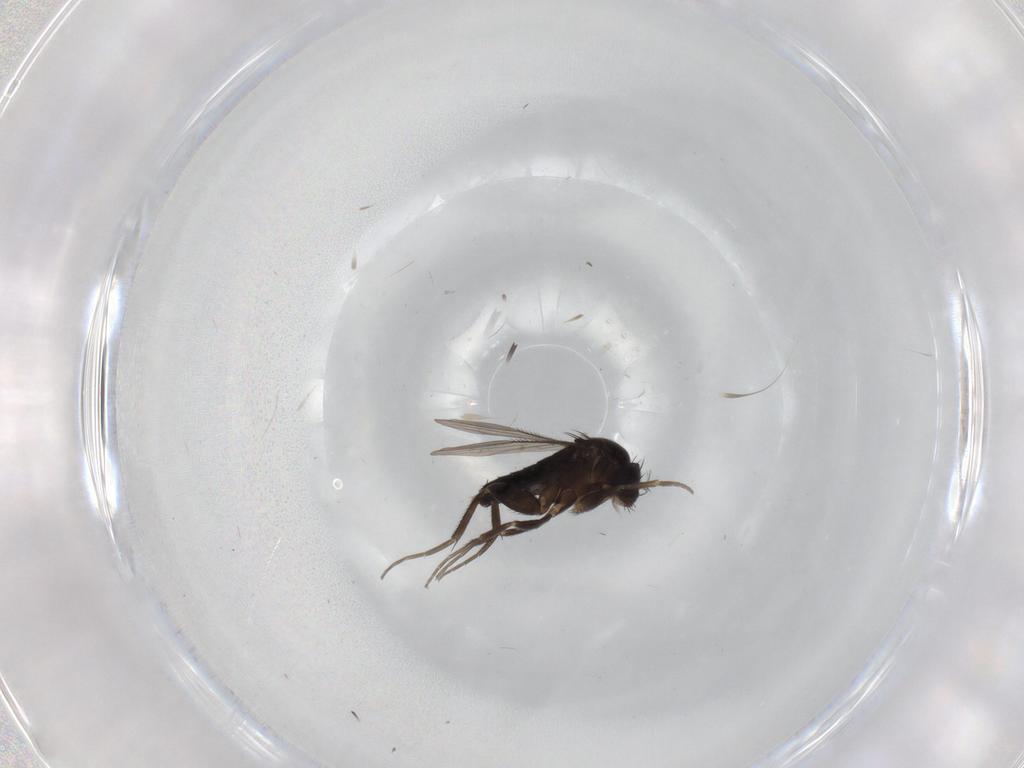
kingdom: Animalia
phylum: Arthropoda
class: Insecta
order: Diptera
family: Phoridae
